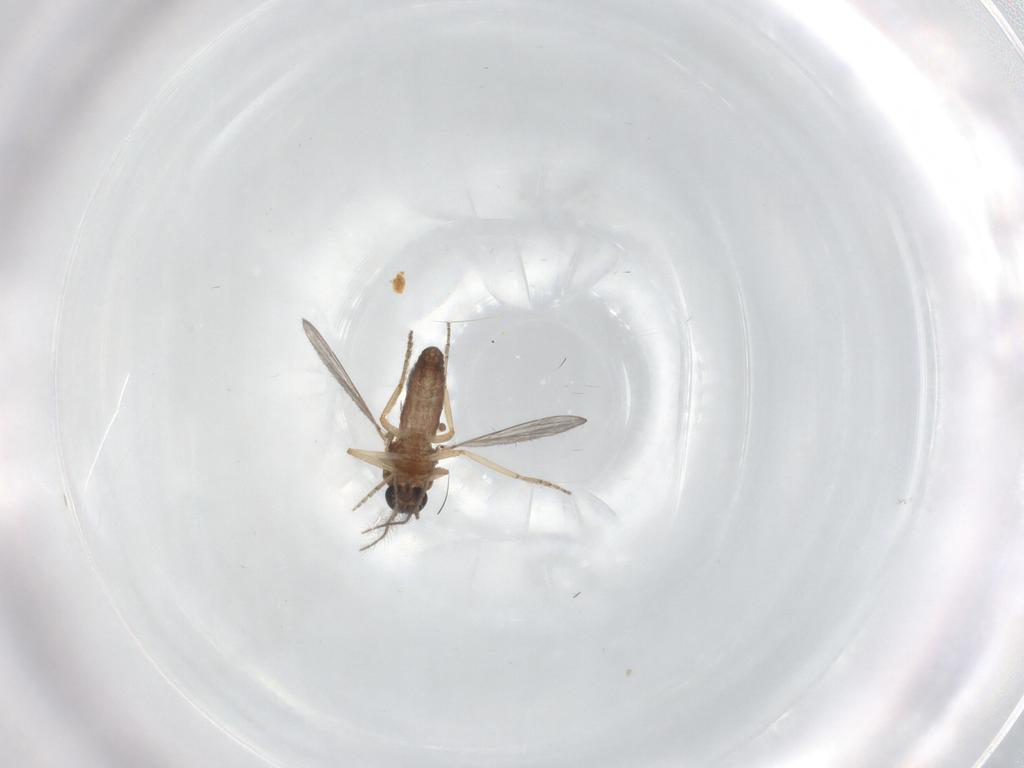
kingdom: Animalia
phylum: Arthropoda
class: Insecta
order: Diptera
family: Ceratopogonidae
